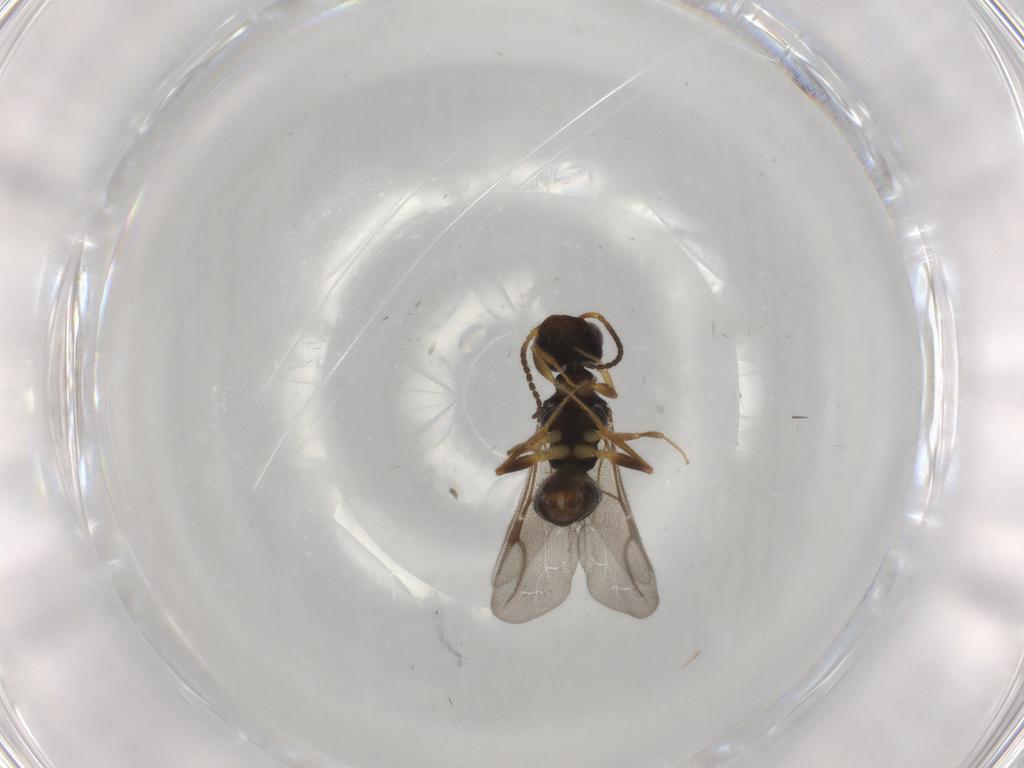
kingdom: Animalia
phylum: Arthropoda
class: Insecta
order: Hymenoptera
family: Bethylidae
